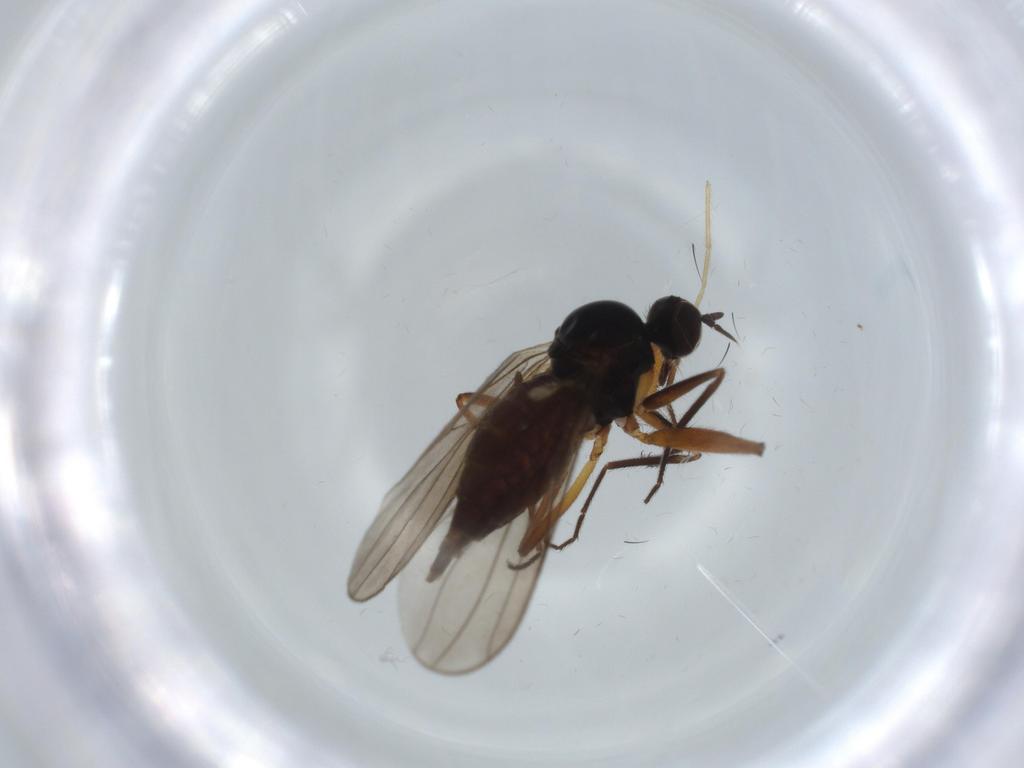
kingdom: Animalia
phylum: Arthropoda
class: Insecta
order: Diptera
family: Hybotidae
